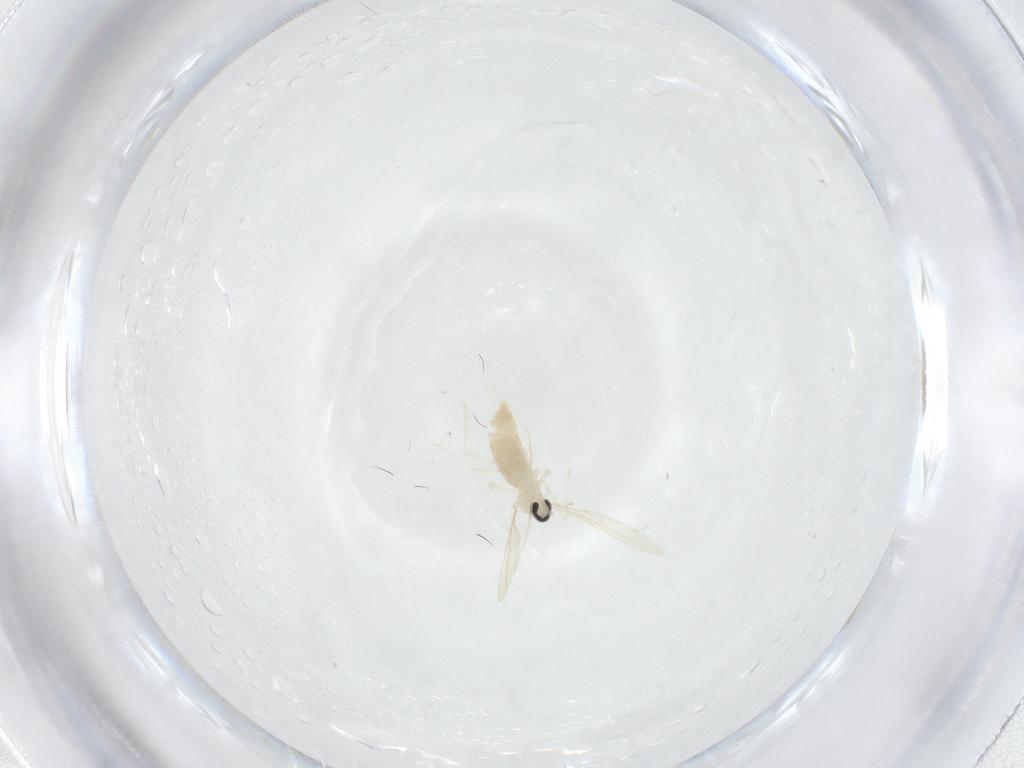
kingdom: Animalia
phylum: Arthropoda
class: Insecta
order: Diptera
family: Cecidomyiidae
